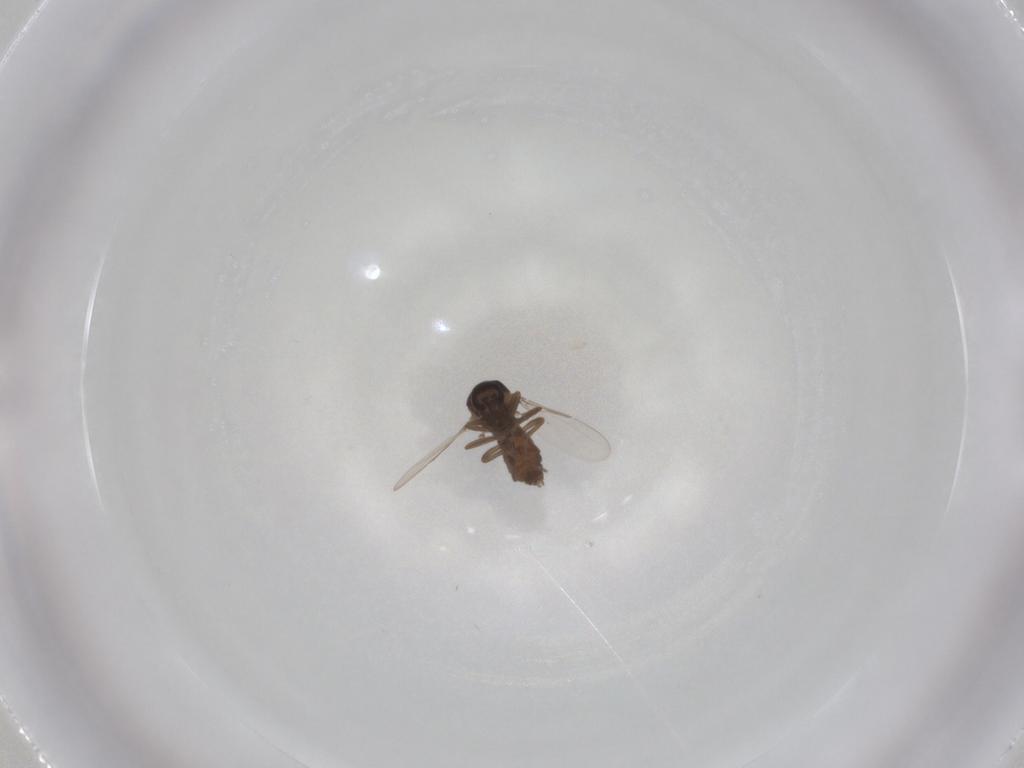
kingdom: Animalia
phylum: Arthropoda
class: Insecta
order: Diptera
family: Ceratopogonidae
